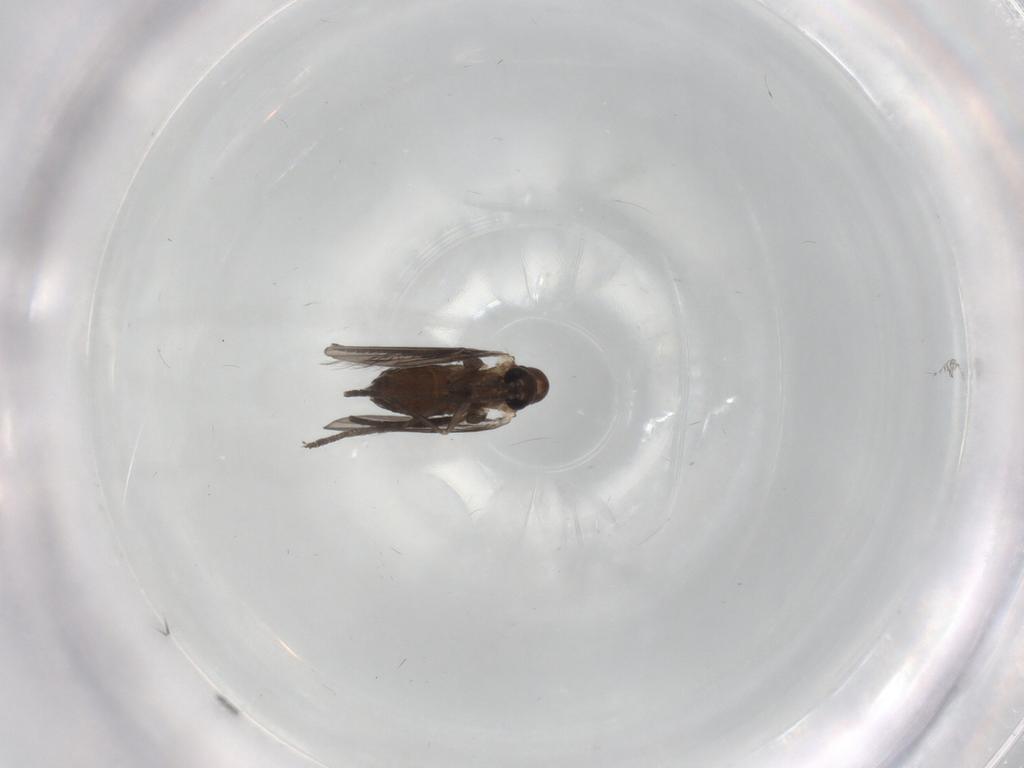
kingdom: Animalia
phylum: Arthropoda
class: Insecta
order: Diptera
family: Psychodidae
